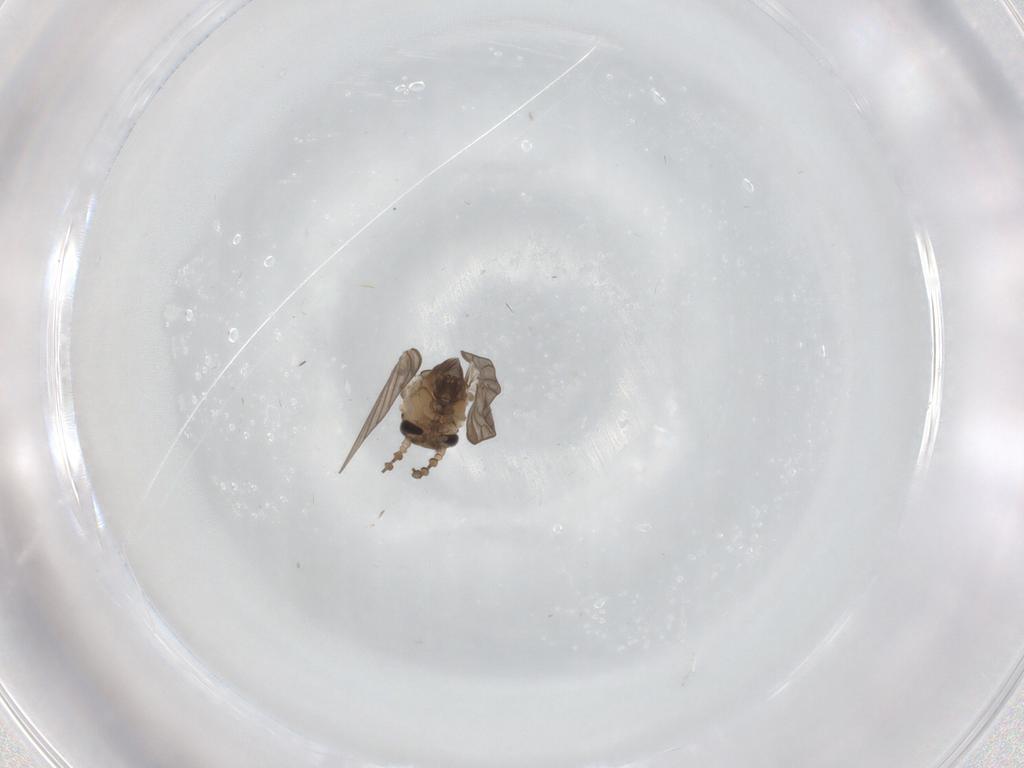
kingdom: Animalia
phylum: Arthropoda
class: Insecta
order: Diptera
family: Psychodidae
